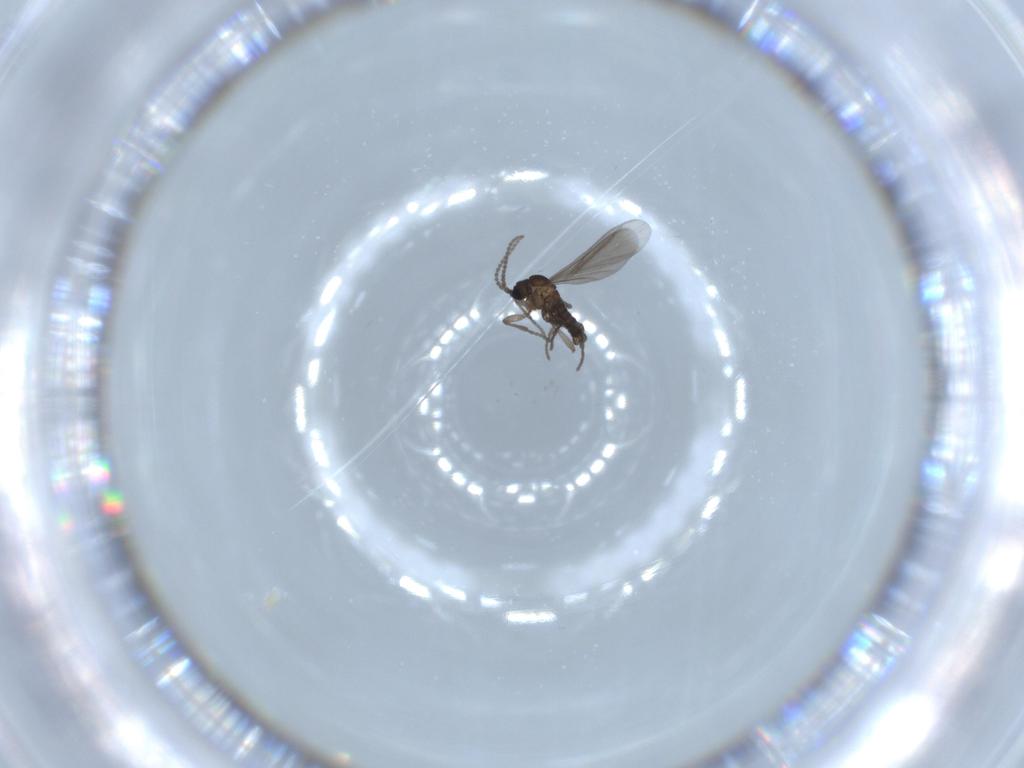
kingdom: Animalia
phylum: Arthropoda
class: Insecta
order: Diptera
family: Sciaridae
